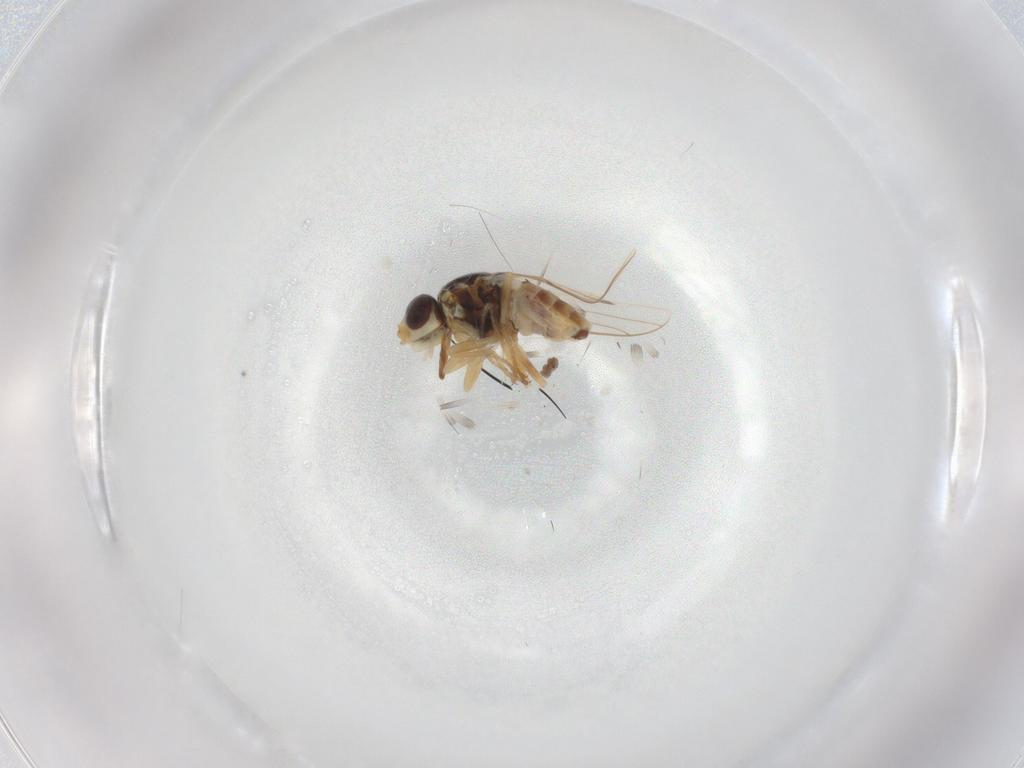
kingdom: Animalia
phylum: Arthropoda
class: Insecta
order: Diptera
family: Chloropidae
